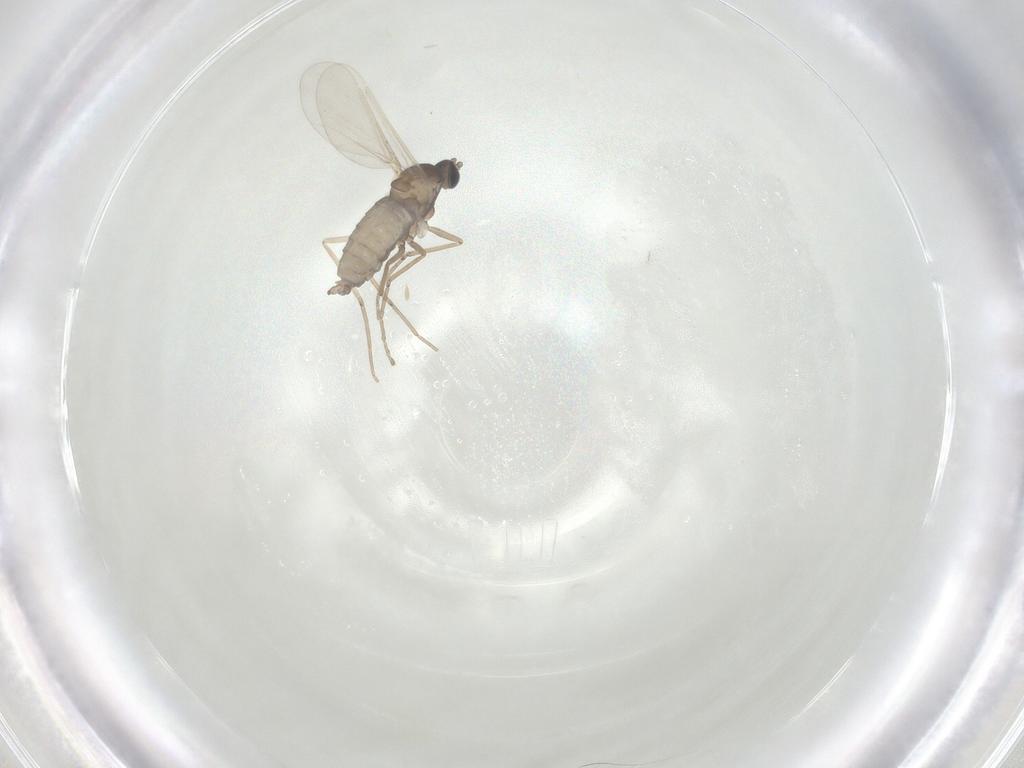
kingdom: Animalia
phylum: Arthropoda
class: Insecta
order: Diptera
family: Cecidomyiidae
